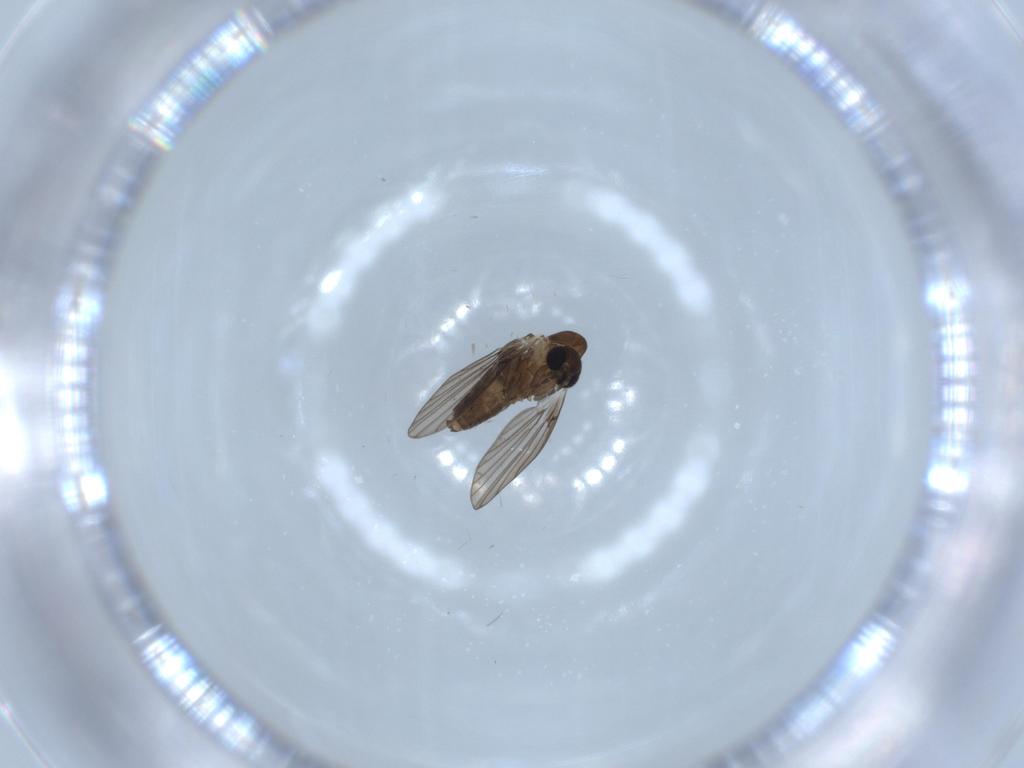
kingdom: Animalia
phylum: Arthropoda
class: Insecta
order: Diptera
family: Psychodidae
